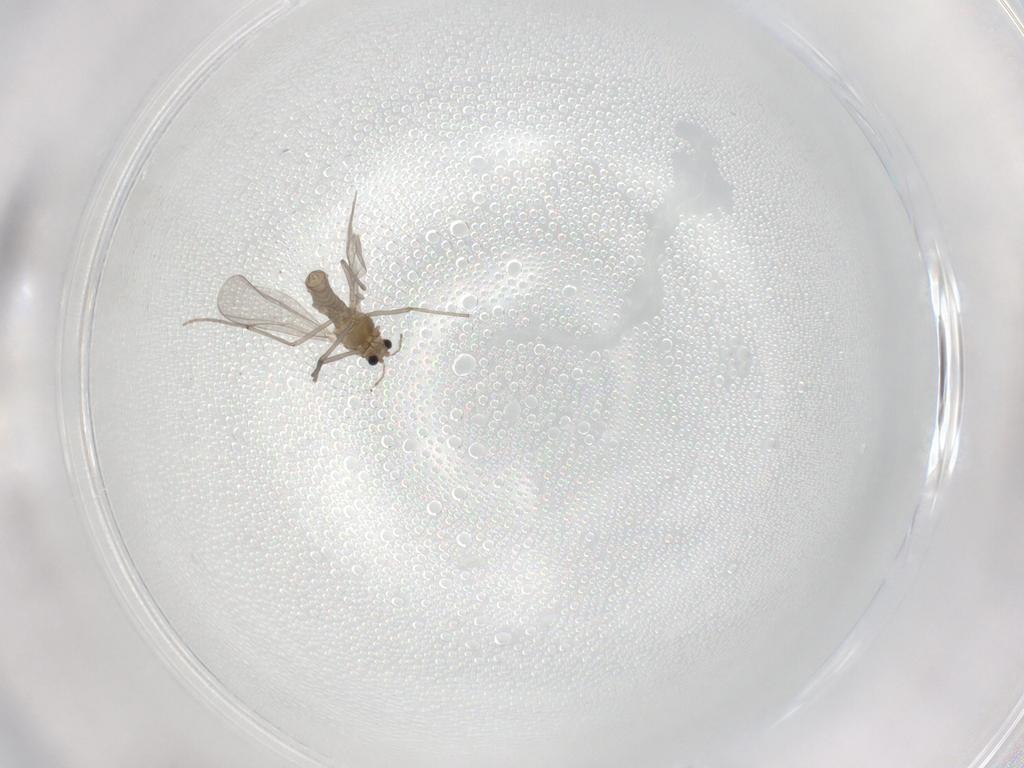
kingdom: Animalia
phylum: Arthropoda
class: Insecta
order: Diptera
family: Chironomidae
